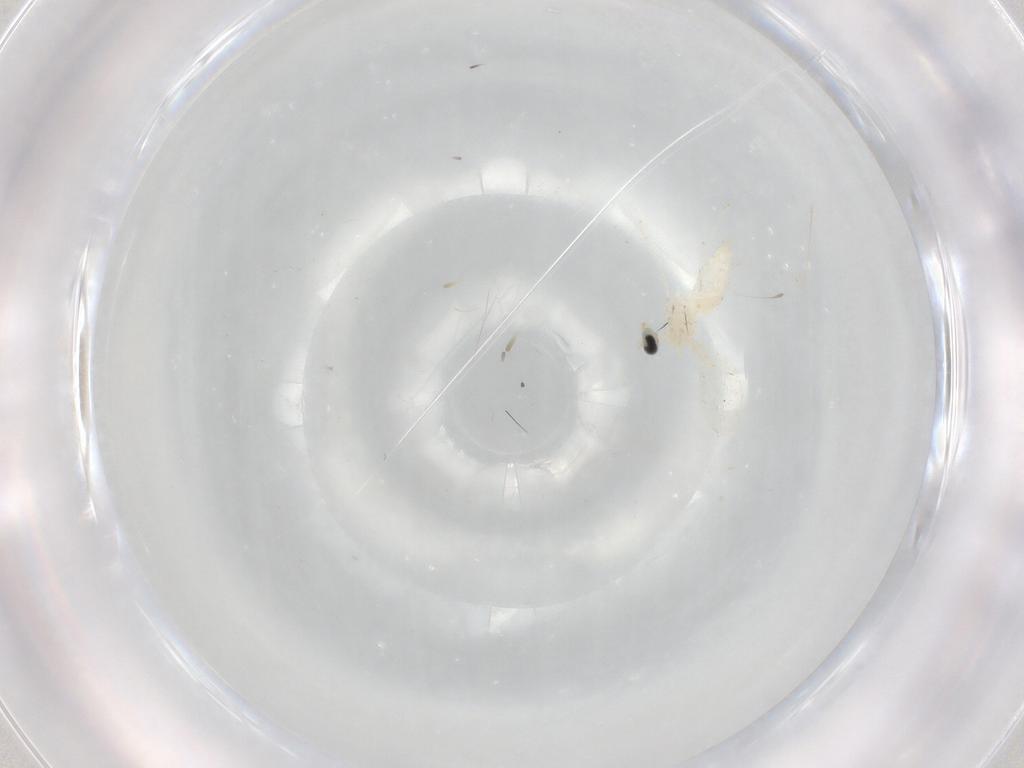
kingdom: Animalia
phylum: Arthropoda
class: Insecta
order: Diptera
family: Cecidomyiidae
